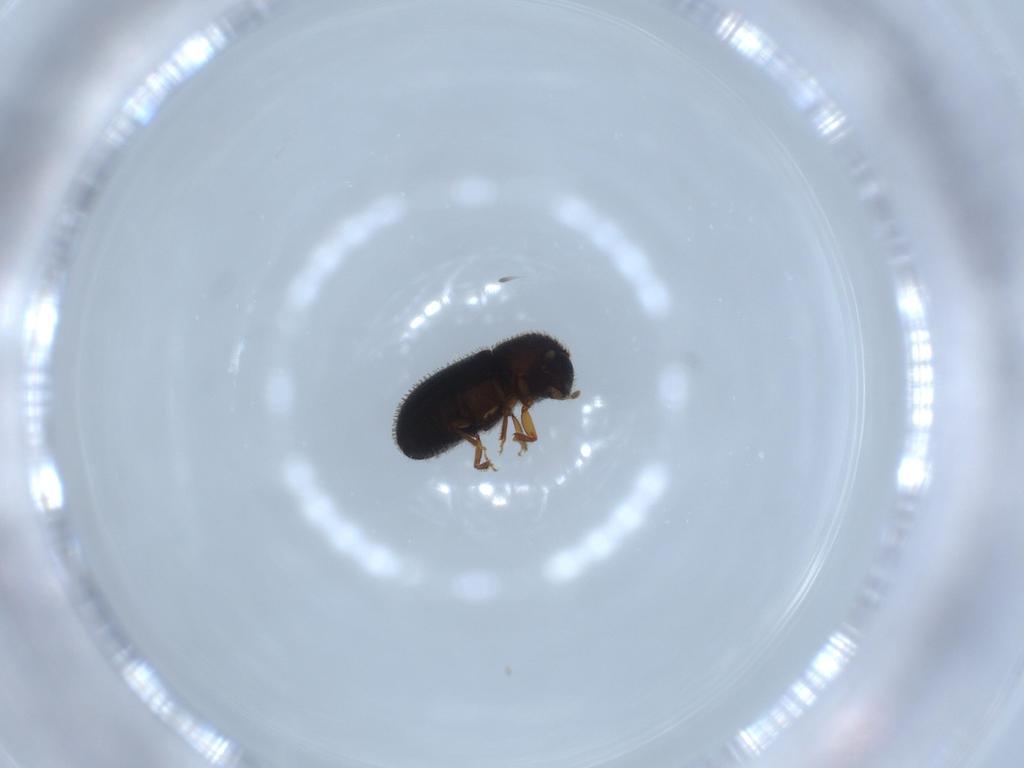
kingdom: Animalia
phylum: Arthropoda
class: Insecta
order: Coleoptera
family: Curculionidae
